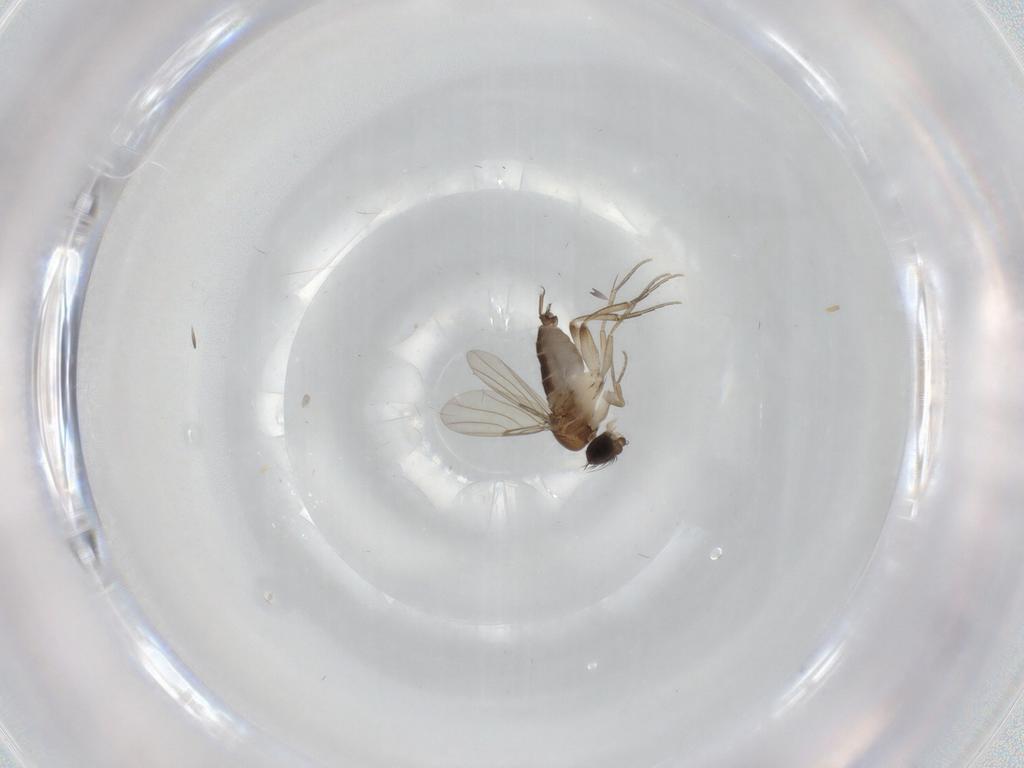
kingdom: Animalia
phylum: Arthropoda
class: Insecta
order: Diptera
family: Phoridae
